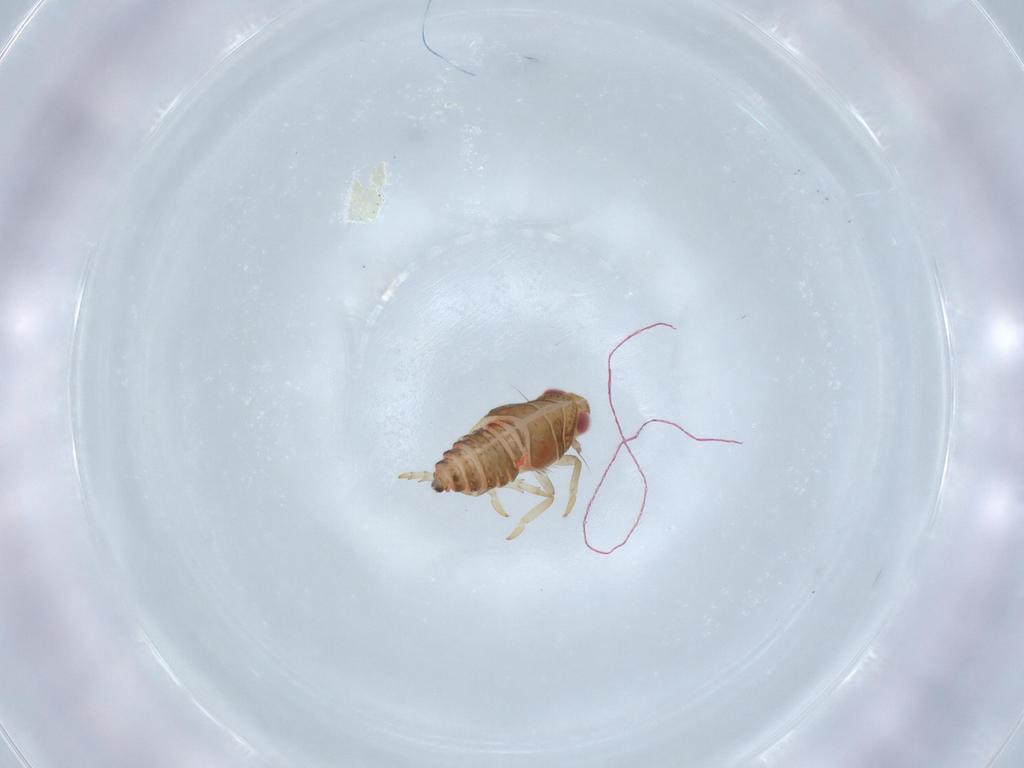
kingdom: Animalia
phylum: Arthropoda
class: Insecta
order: Hemiptera
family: Issidae
